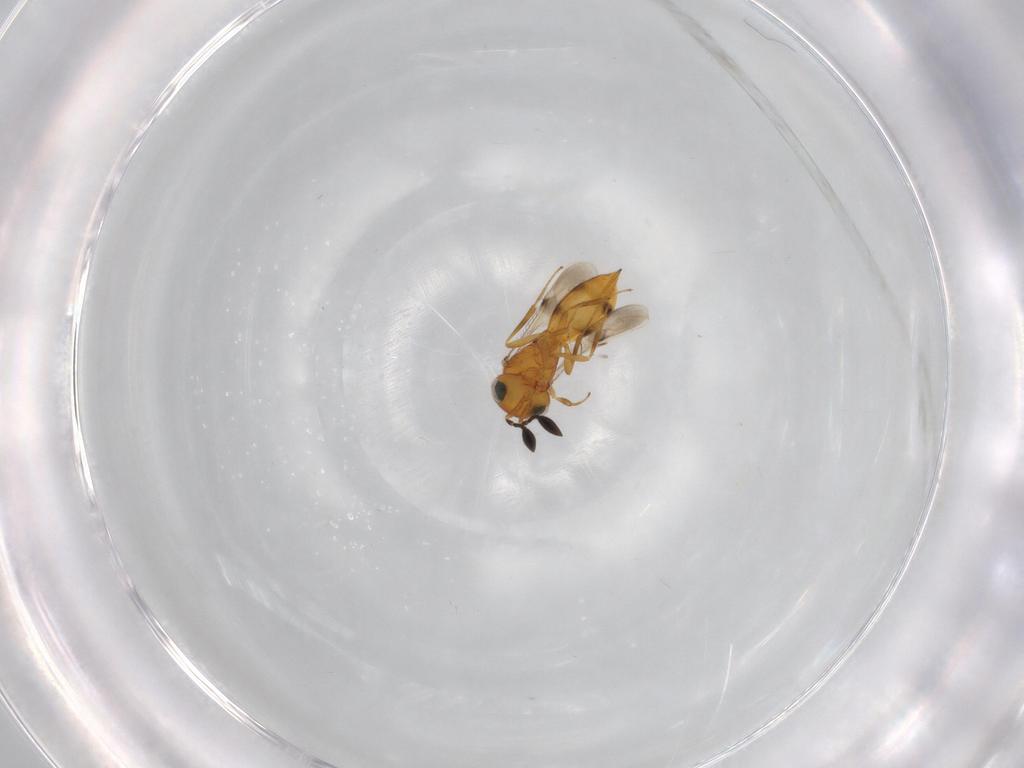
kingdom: Animalia
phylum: Arthropoda
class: Insecta
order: Hymenoptera
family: Scelionidae
